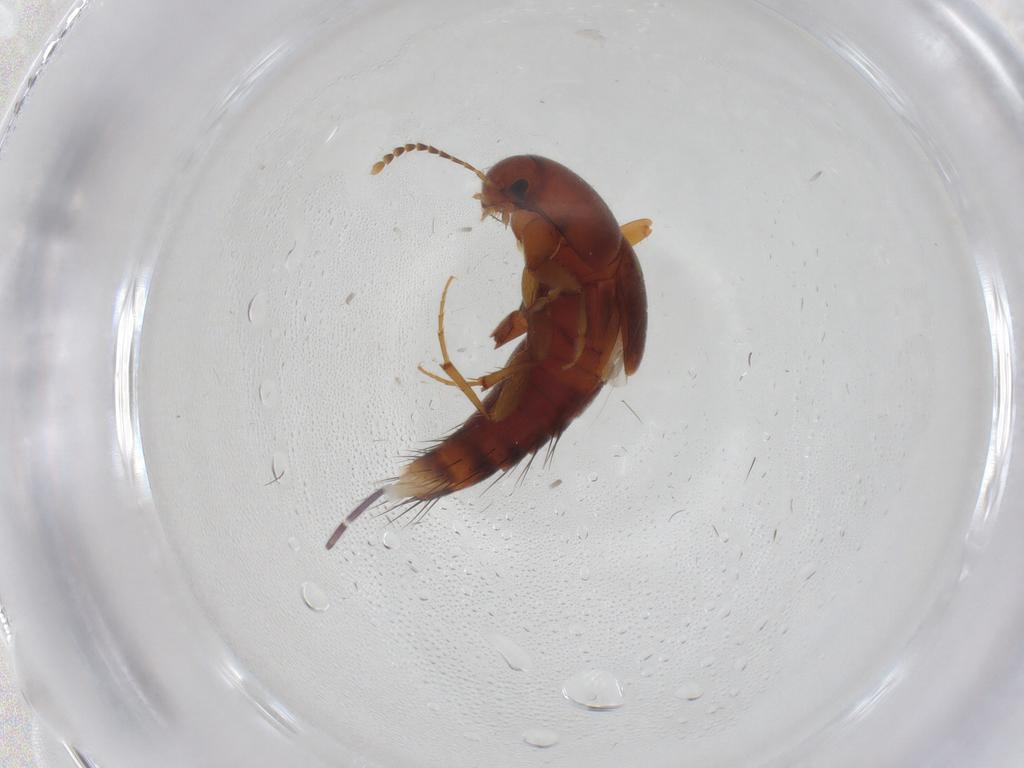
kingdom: Animalia
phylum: Arthropoda
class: Insecta
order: Coleoptera
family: Staphylinidae
